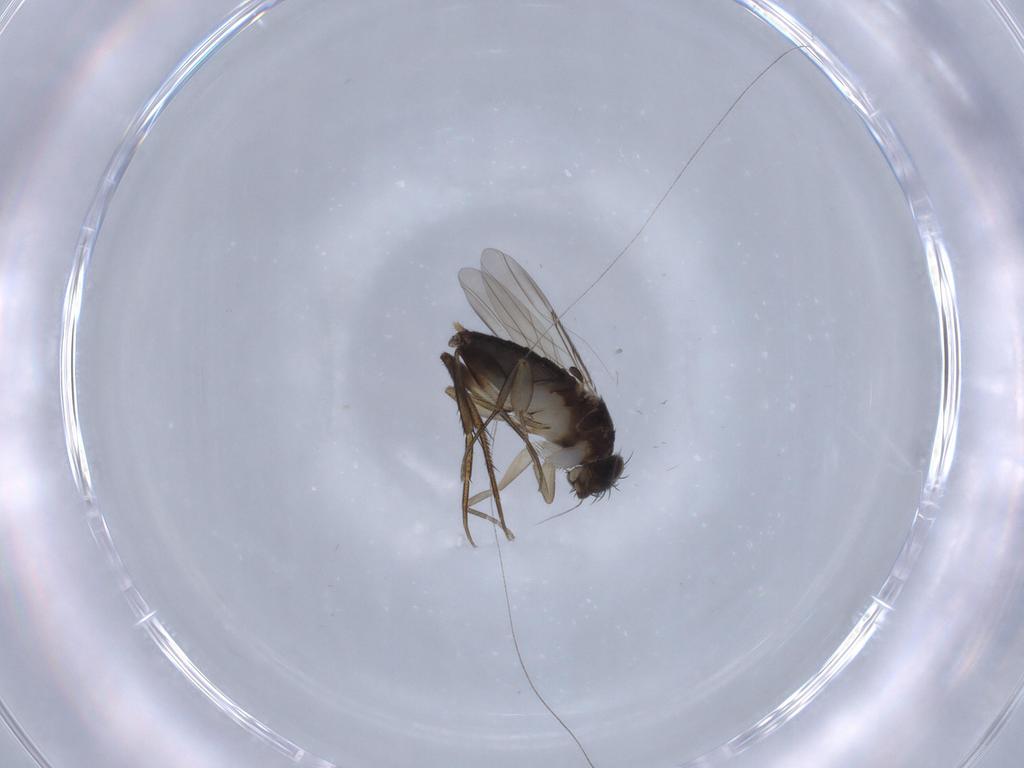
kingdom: Animalia
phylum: Arthropoda
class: Insecta
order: Diptera
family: Phoridae
